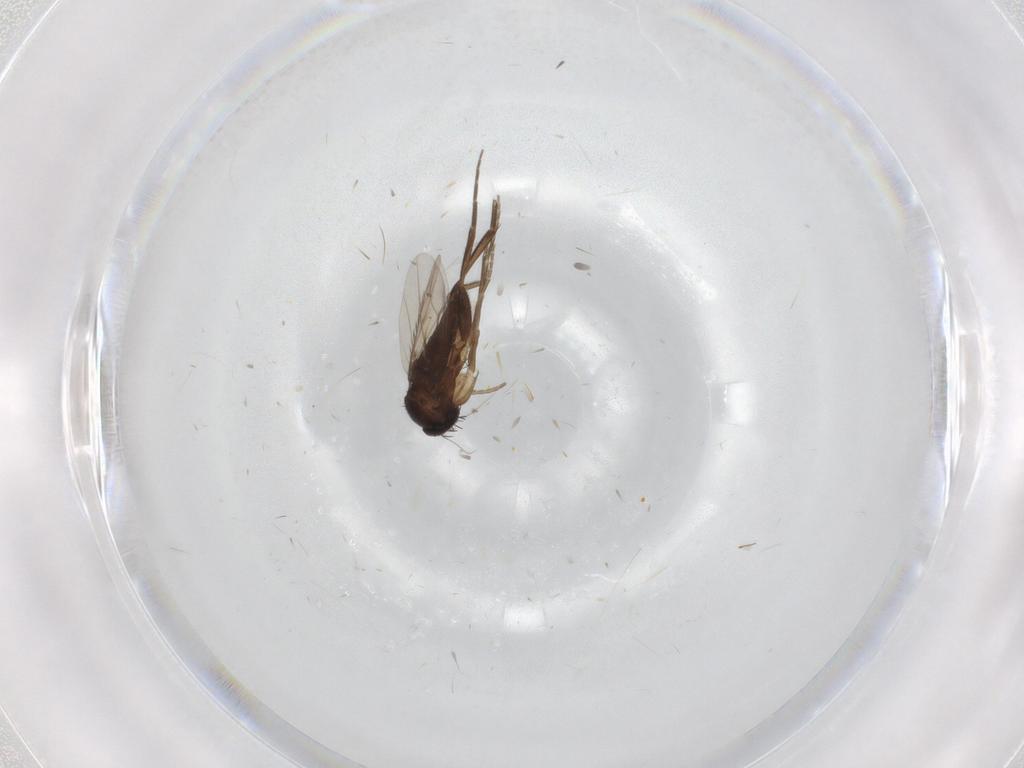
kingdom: Animalia
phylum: Arthropoda
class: Insecta
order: Diptera
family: Phoridae
